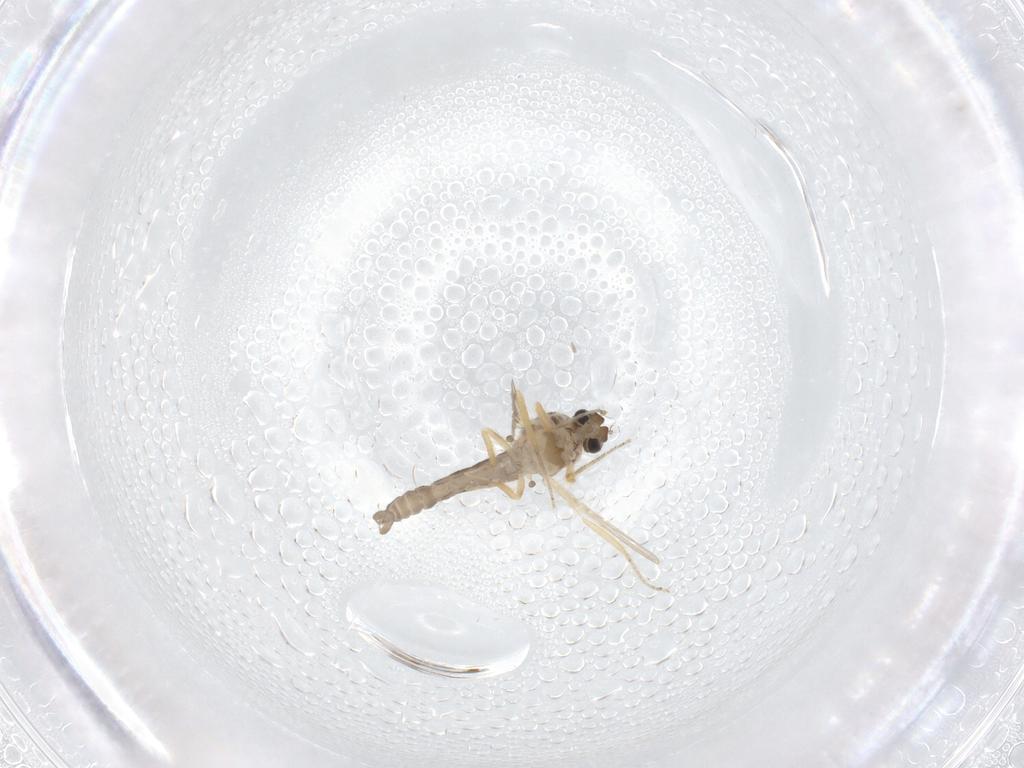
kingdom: Animalia
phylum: Arthropoda
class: Insecta
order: Diptera
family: Ceratopogonidae
